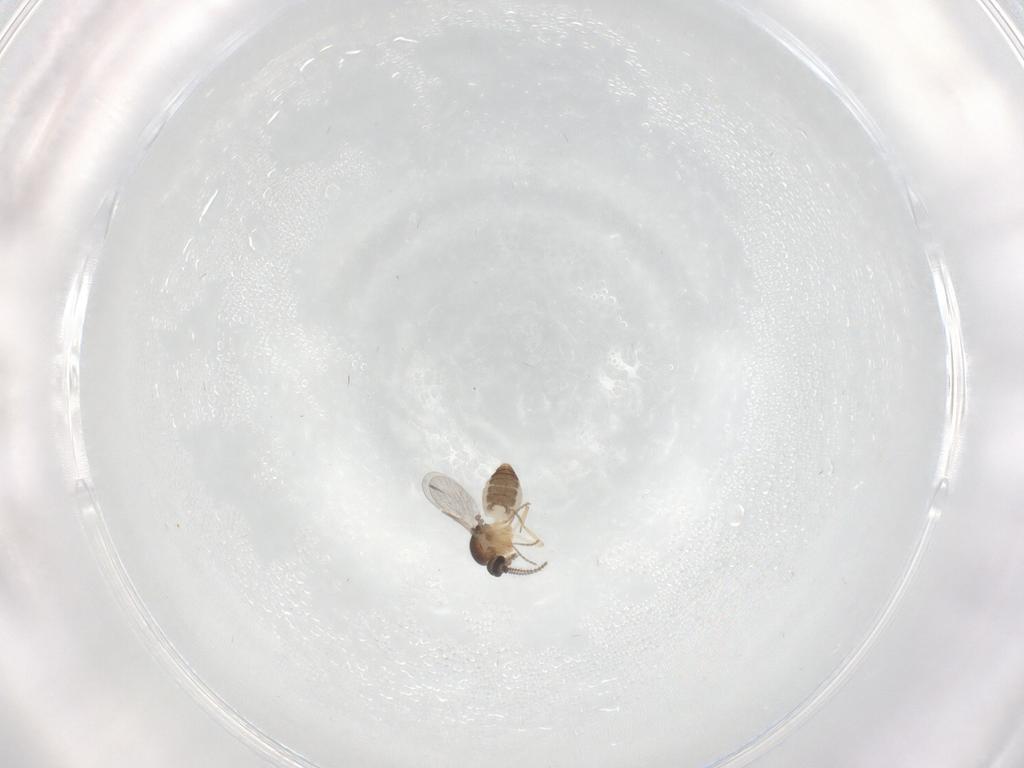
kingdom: Animalia
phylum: Arthropoda
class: Insecta
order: Diptera
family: Ceratopogonidae
